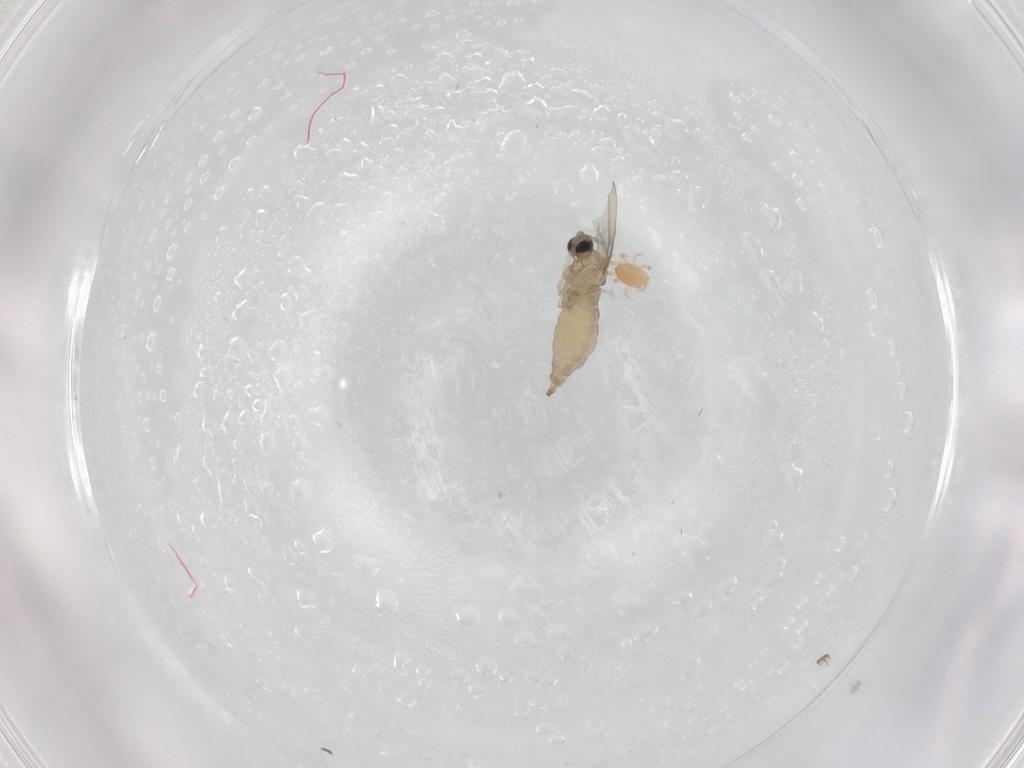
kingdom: Animalia
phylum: Arthropoda
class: Insecta
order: Diptera
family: Cecidomyiidae
